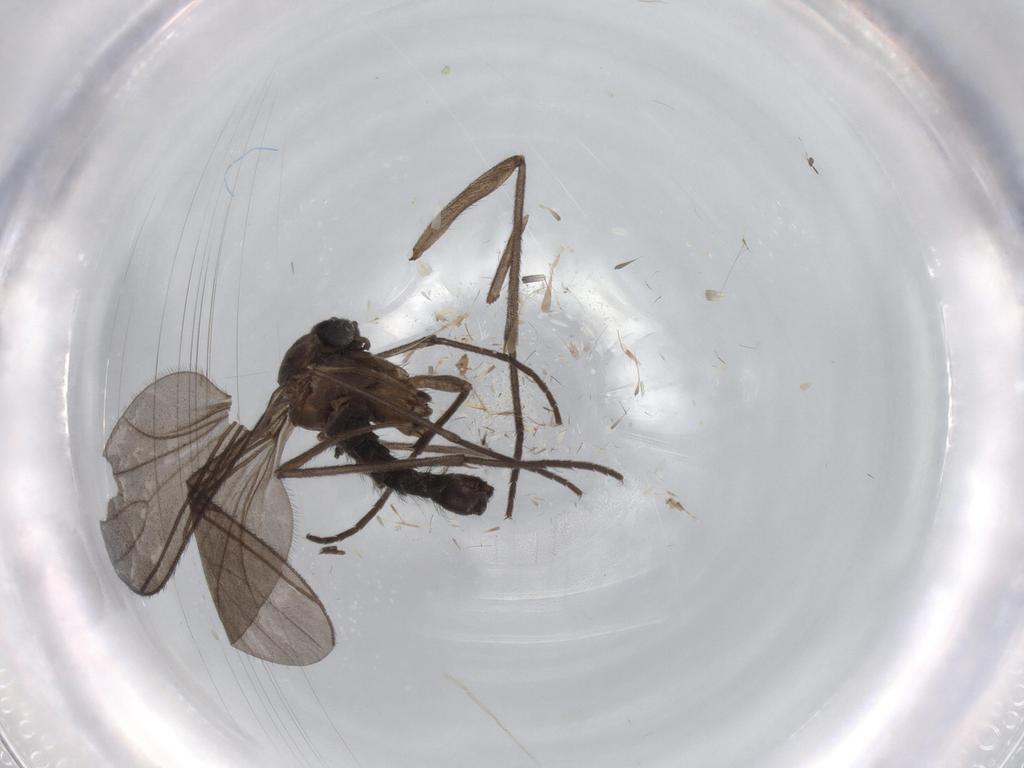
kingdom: Animalia
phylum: Arthropoda
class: Insecta
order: Diptera
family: Sciaridae
